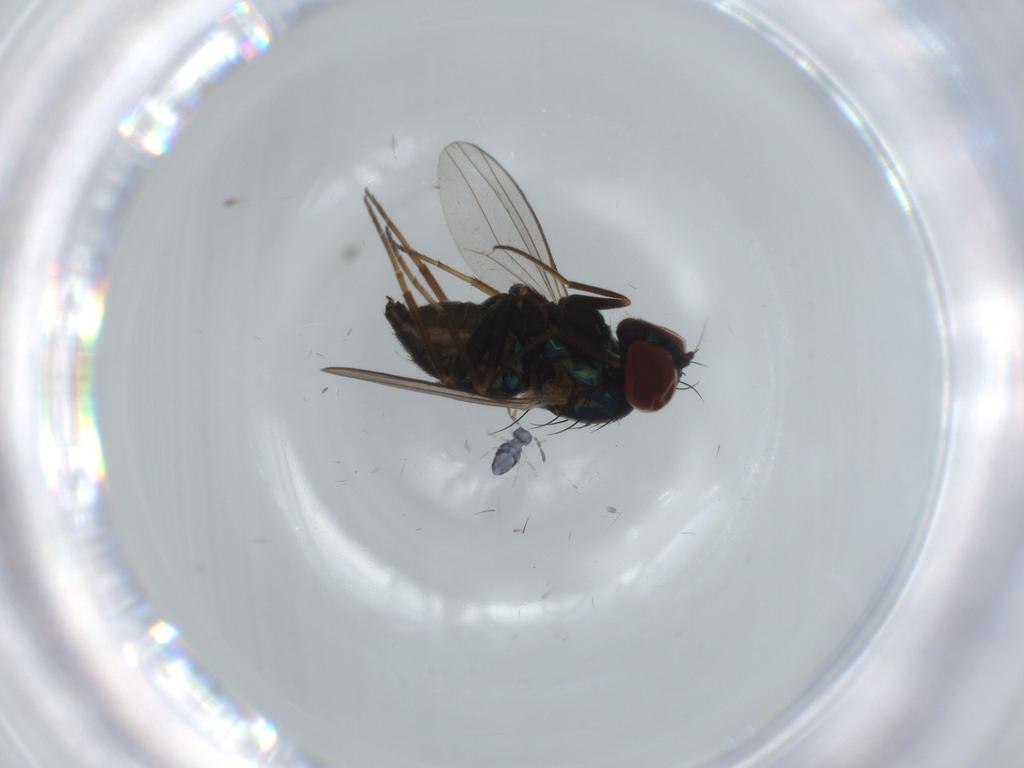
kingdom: Animalia
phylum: Arthropoda
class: Insecta
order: Diptera
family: Dolichopodidae
